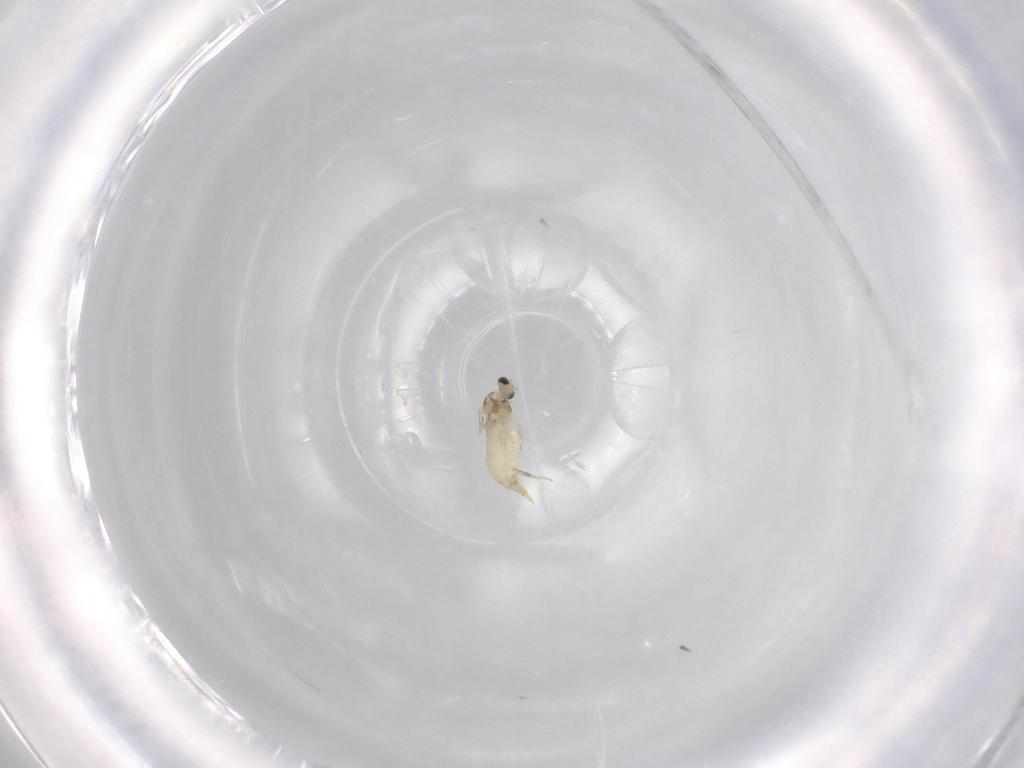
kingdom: Animalia
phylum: Arthropoda
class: Insecta
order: Diptera
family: Dolichopodidae
